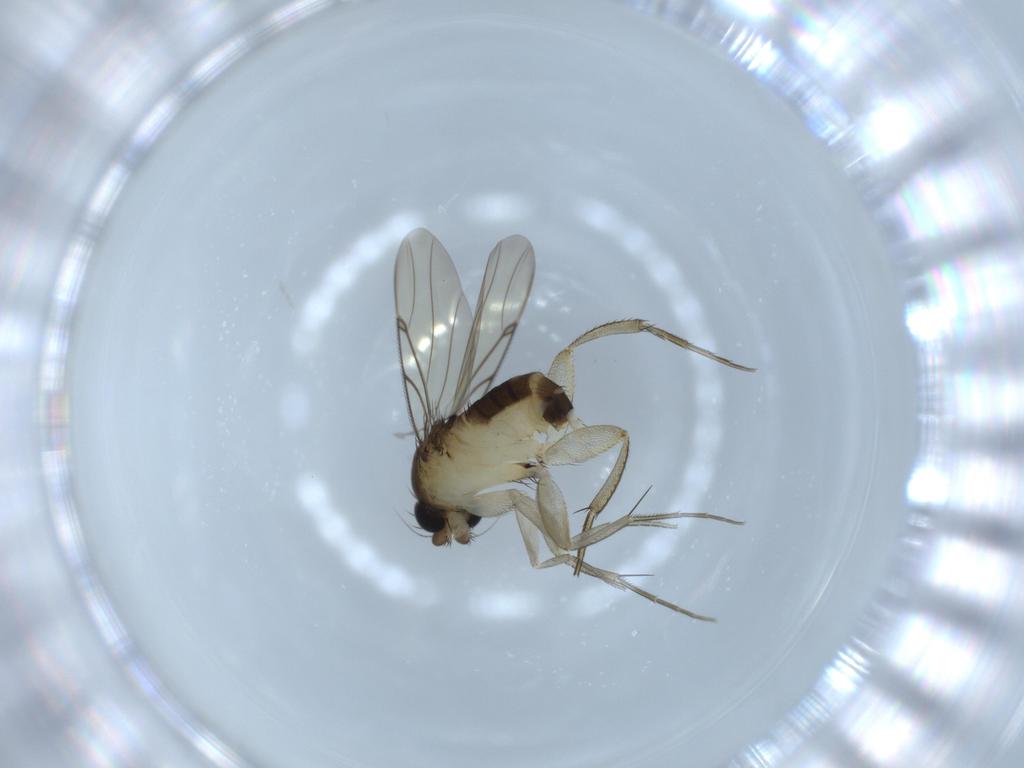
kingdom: Animalia
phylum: Arthropoda
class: Insecta
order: Diptera
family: Phoridae
